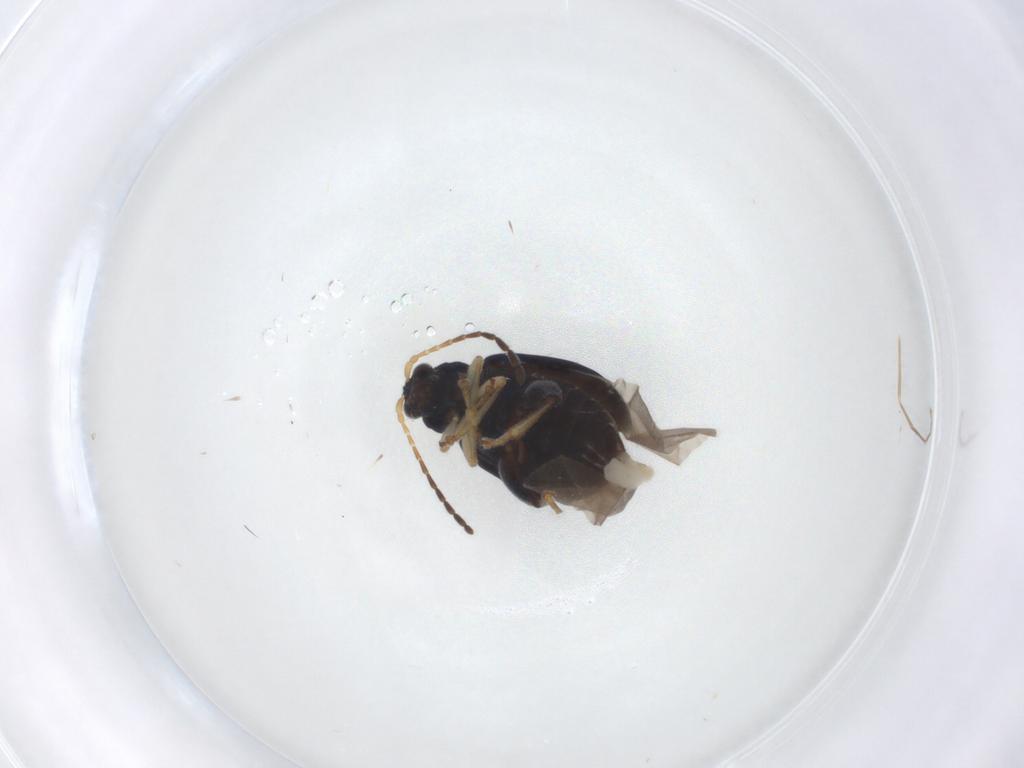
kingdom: Animalia
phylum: Arthropoda
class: Insecta
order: Coleoptera
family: Chrysomelidae
